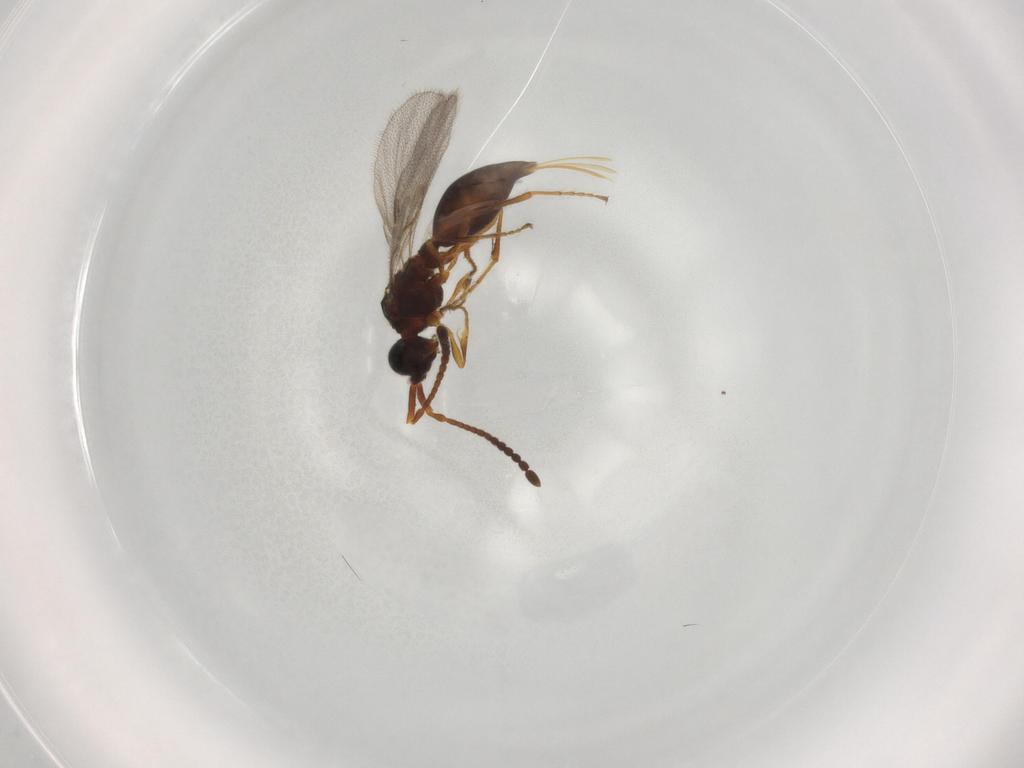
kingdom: Animalia
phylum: Arthropoda
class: Insecta
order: Hymenoptera
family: Diapriidae
